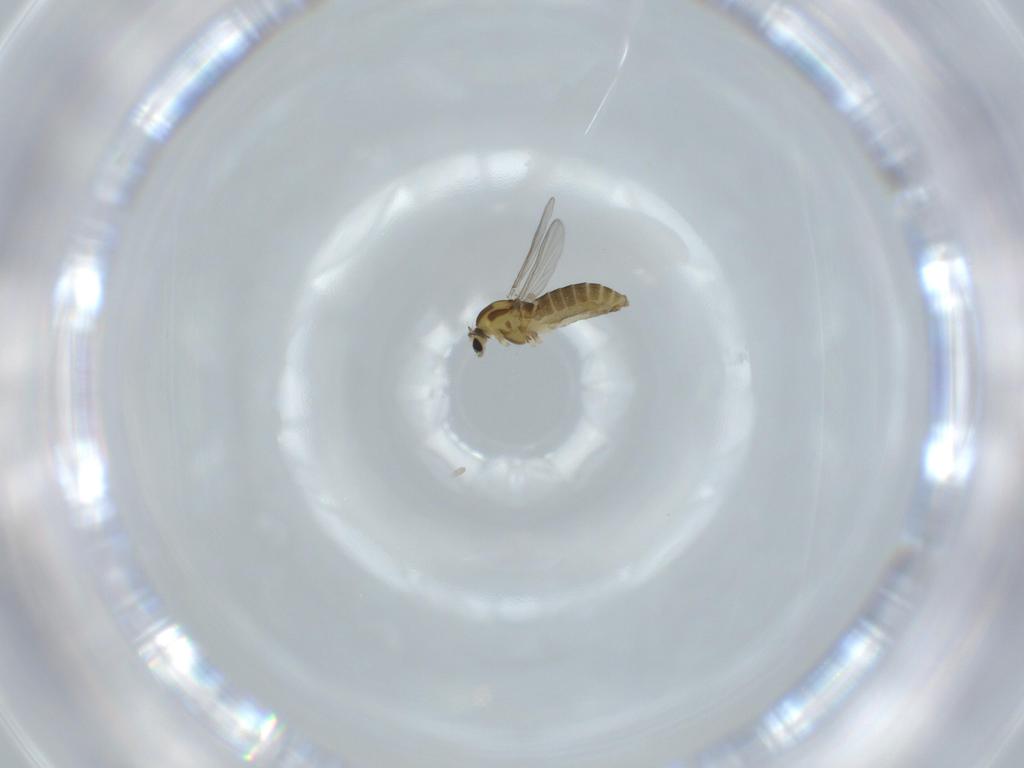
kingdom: Animalia
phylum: Arthropoda
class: Insecta
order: Diptera
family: Chironomidae
